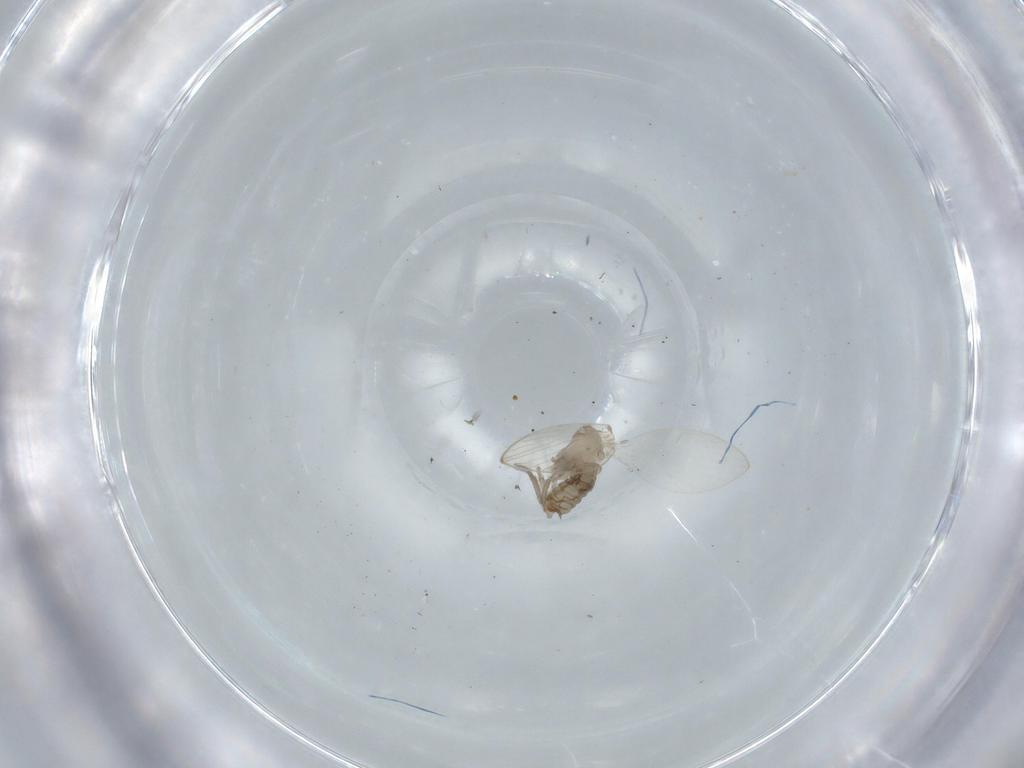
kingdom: Animalia
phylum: Arthropoda
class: Insecta
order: Diptera
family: Psychodidae
